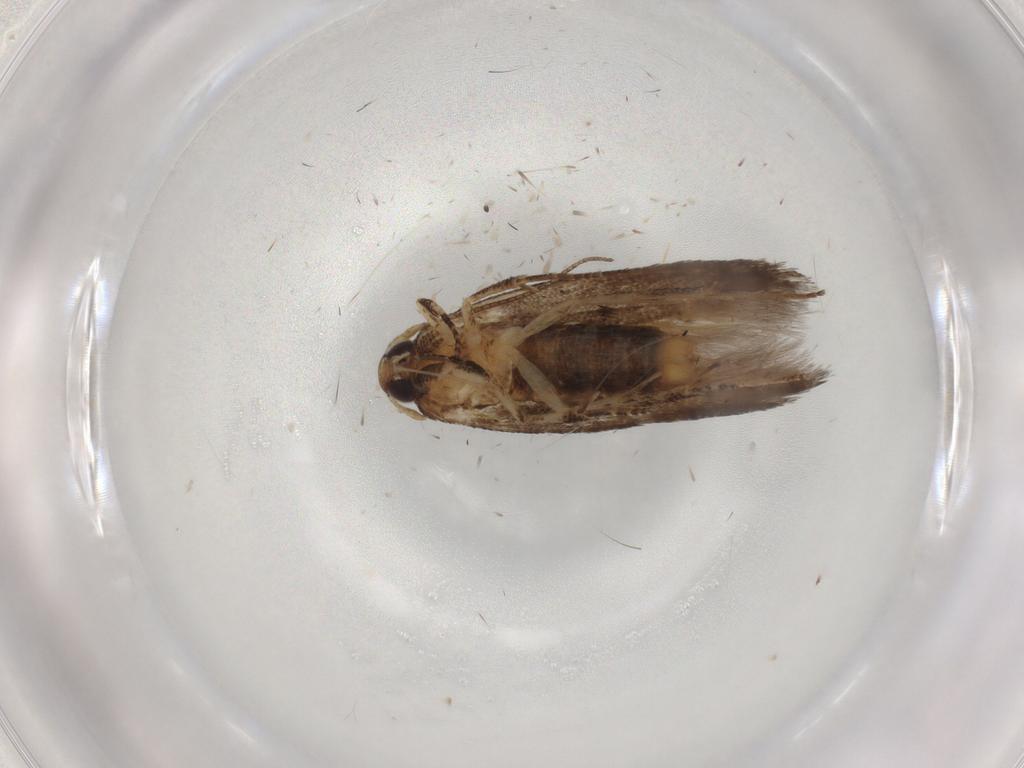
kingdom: Animalia
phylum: Arthropoda
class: Insecta
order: Lepidoptera
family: Cosmopterigidae
